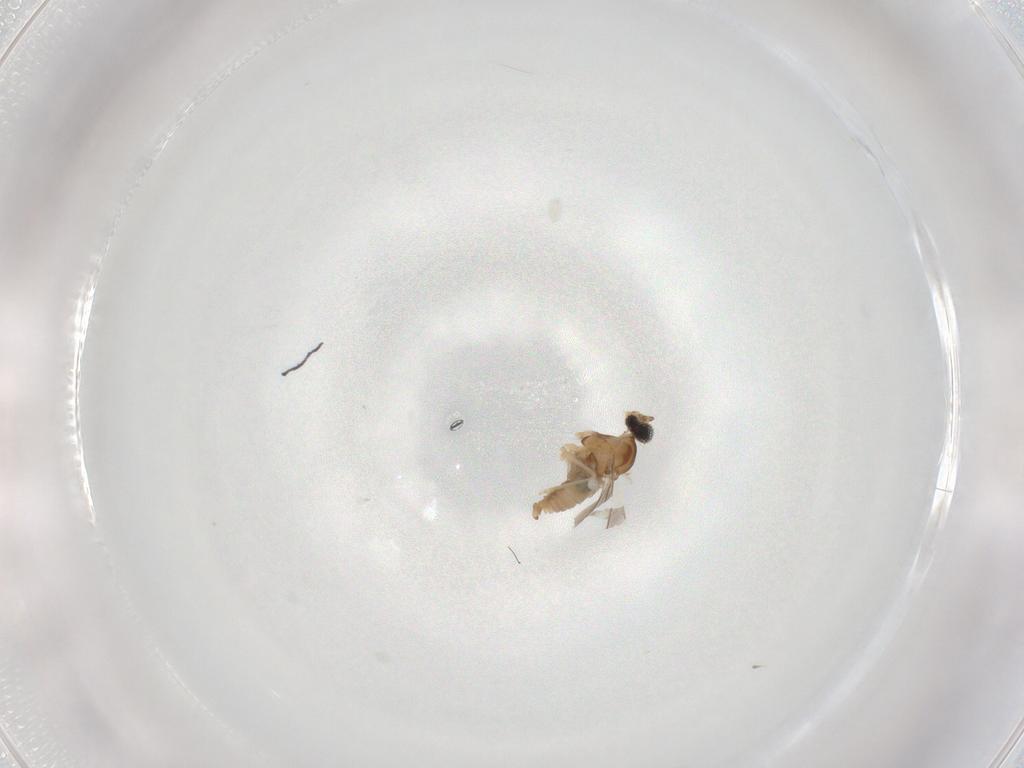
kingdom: Animalia
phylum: Arthropoda
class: Insecta
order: Diptera
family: Cecidomyiidae
